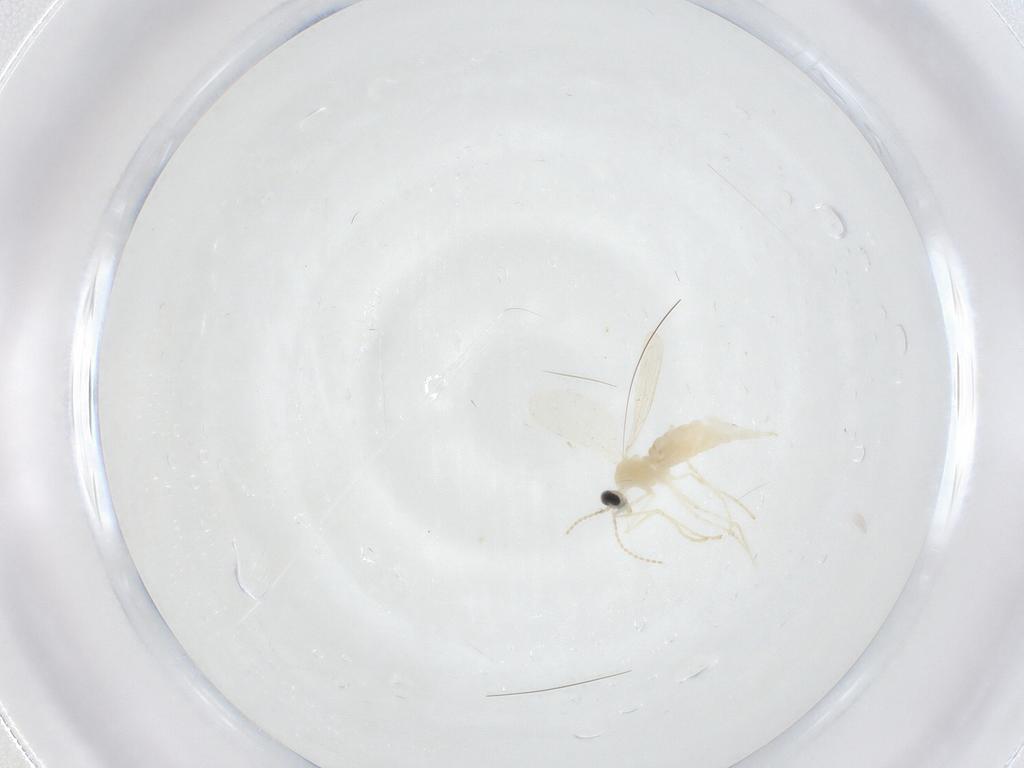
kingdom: Animalia
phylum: Arthropoda
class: Insecta
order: Diptera
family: Cecidomyiidae
